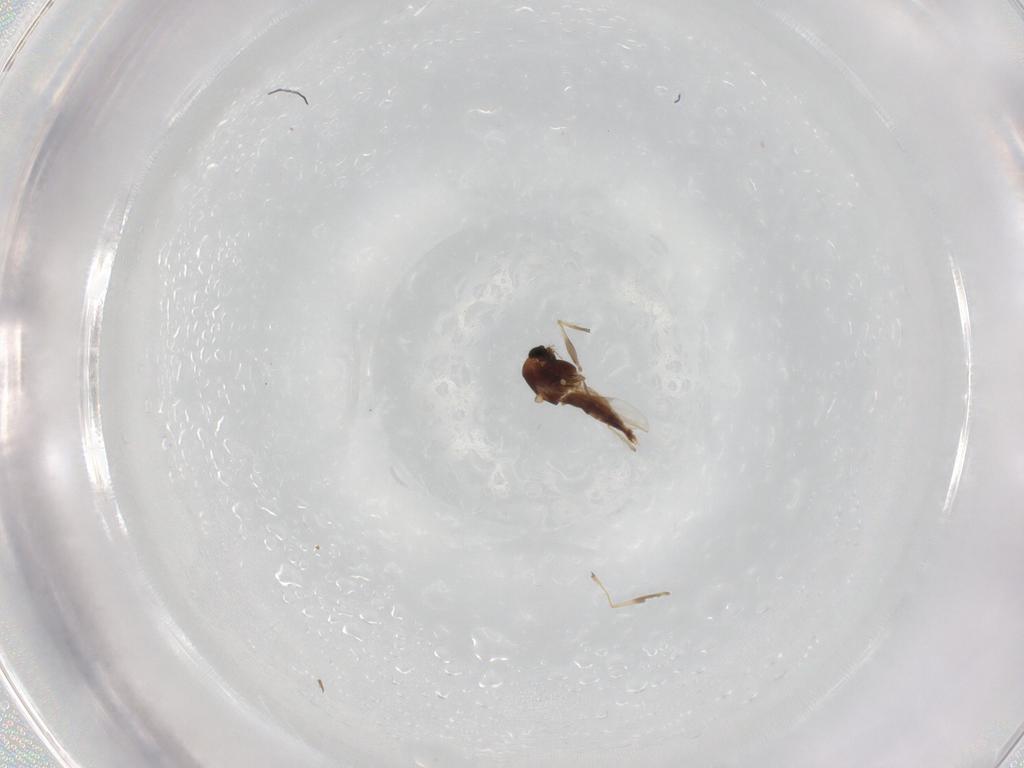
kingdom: Animalia
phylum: Arthropoda
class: Insecta
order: Diptera
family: Chironomidae
